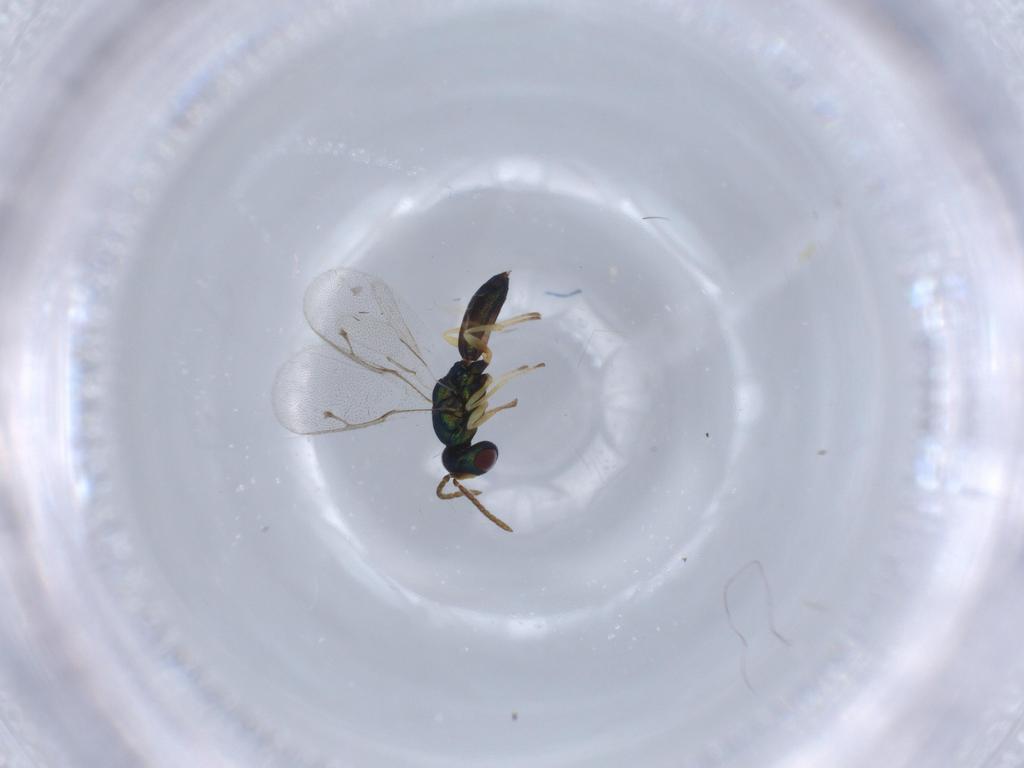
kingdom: Animalia
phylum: Arthropoda
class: Insecta
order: Hymenoptera
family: Pteromalidae
